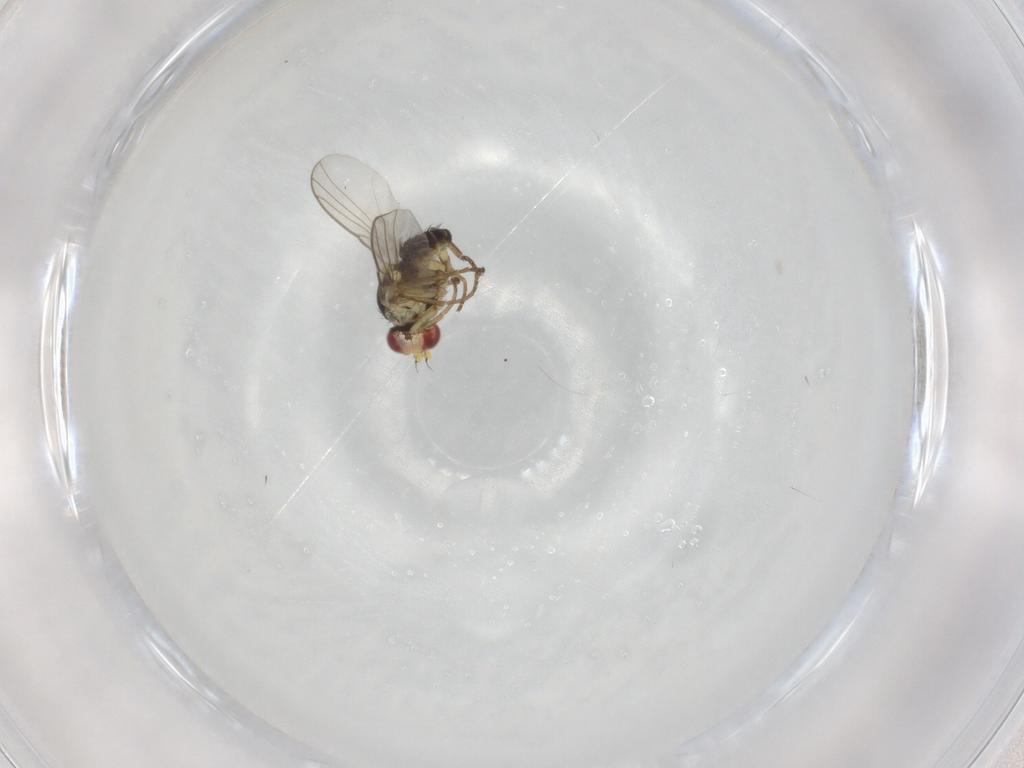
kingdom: Animalia
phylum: Arthropoda
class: Insecta
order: Diptera
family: Agromyzidae
